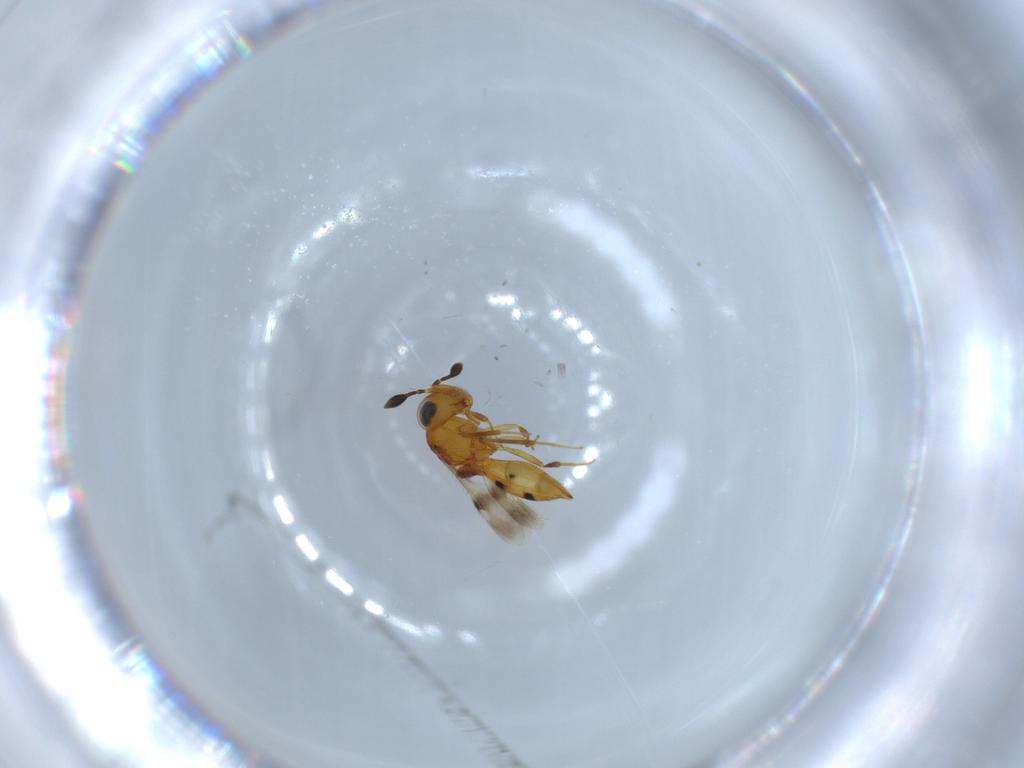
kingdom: Animalia
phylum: Arthropoda
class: Insecta
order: Hymenoptera
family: Scelionidae
